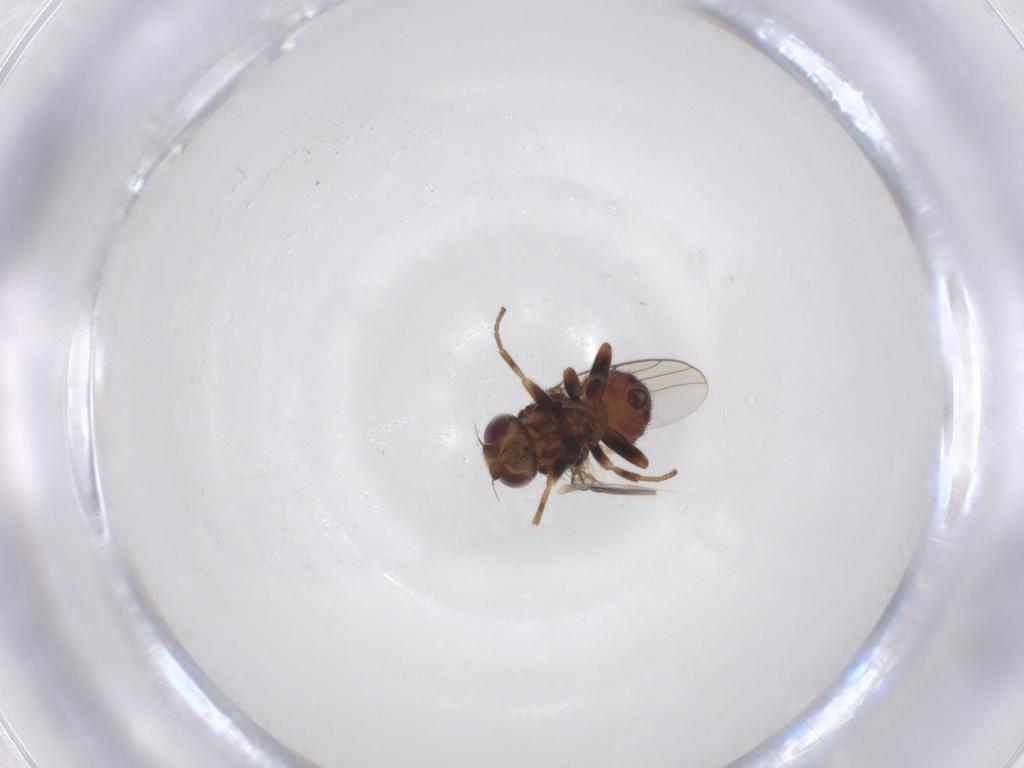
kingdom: Animalia
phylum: Arthropoda
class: Insecta
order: Diptera
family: Chloropidae
